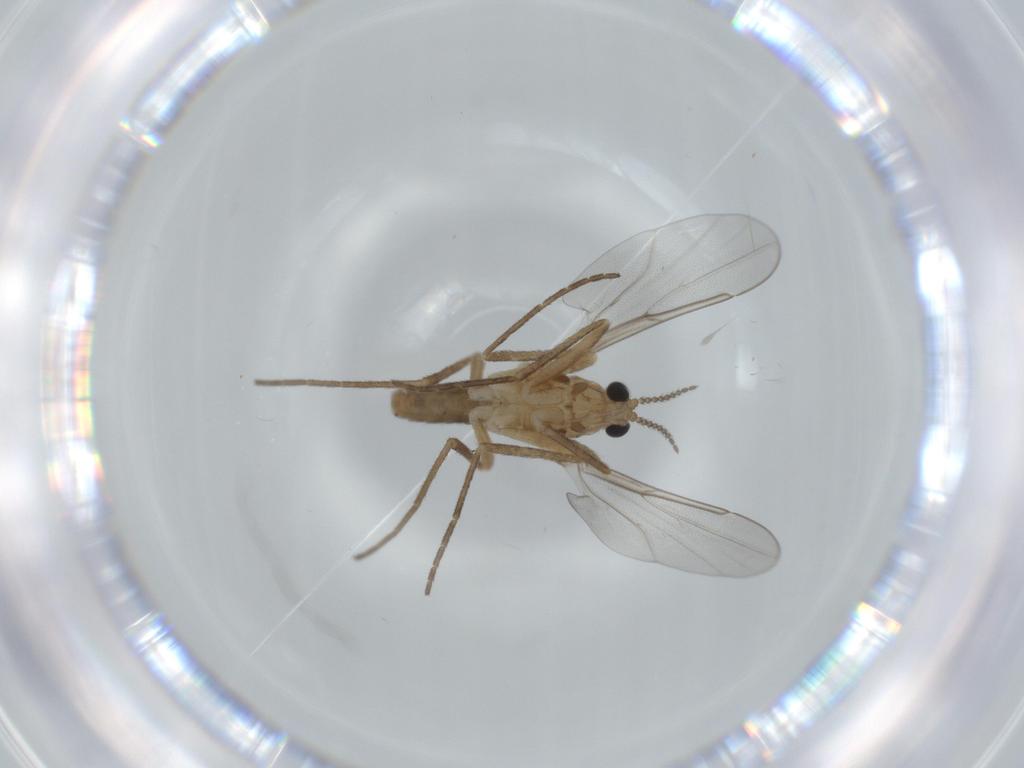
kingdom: Animalia
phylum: Arthropoda
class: Insecta
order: Diptera
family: Cecidomyiidae
